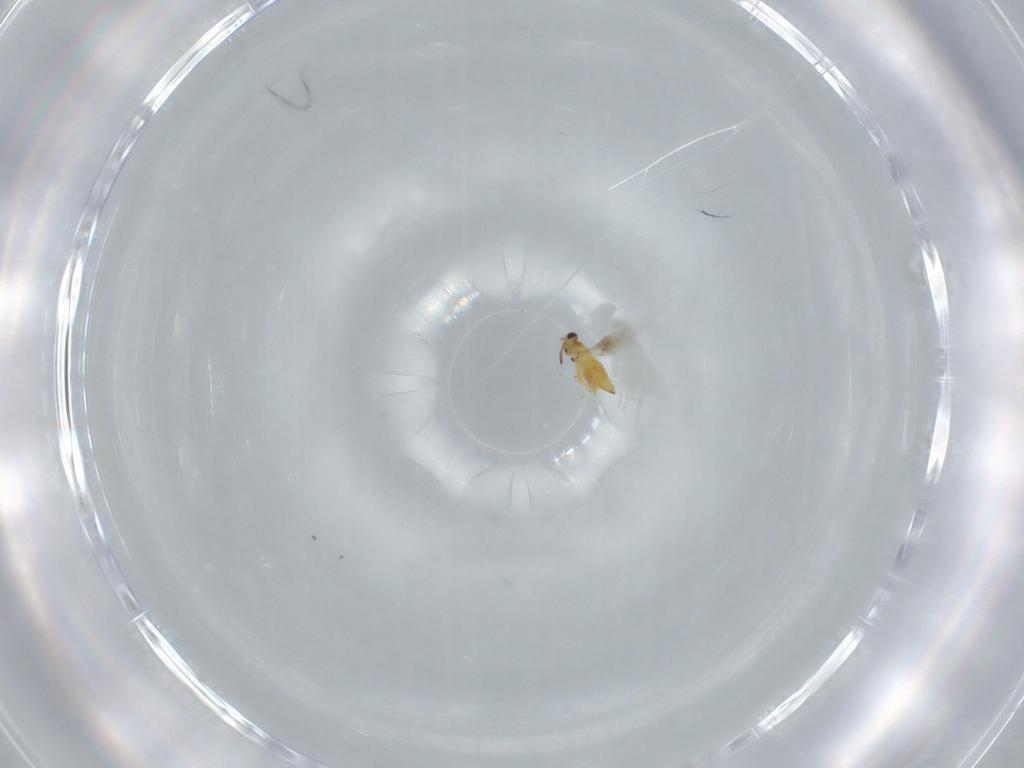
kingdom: Animalia
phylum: Arthropoda
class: Insecta
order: Hymenoptera
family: Signiphoridae
